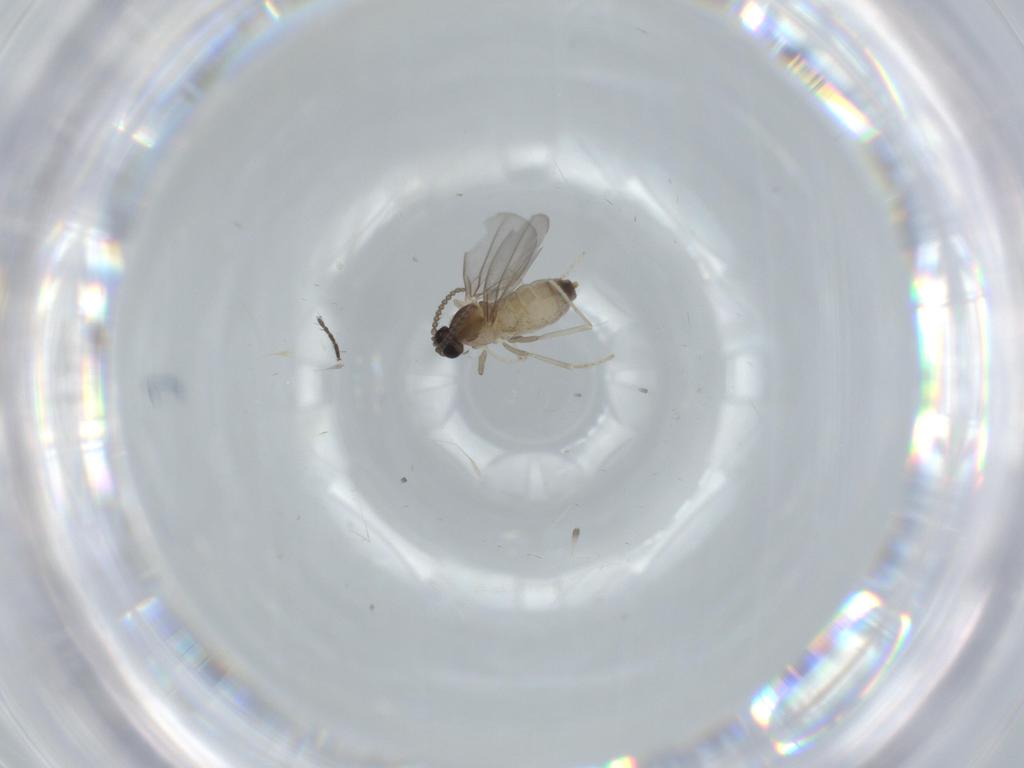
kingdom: Animalia
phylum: Arthropoda
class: Insecta
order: Diptera
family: Cecidomyiidae
